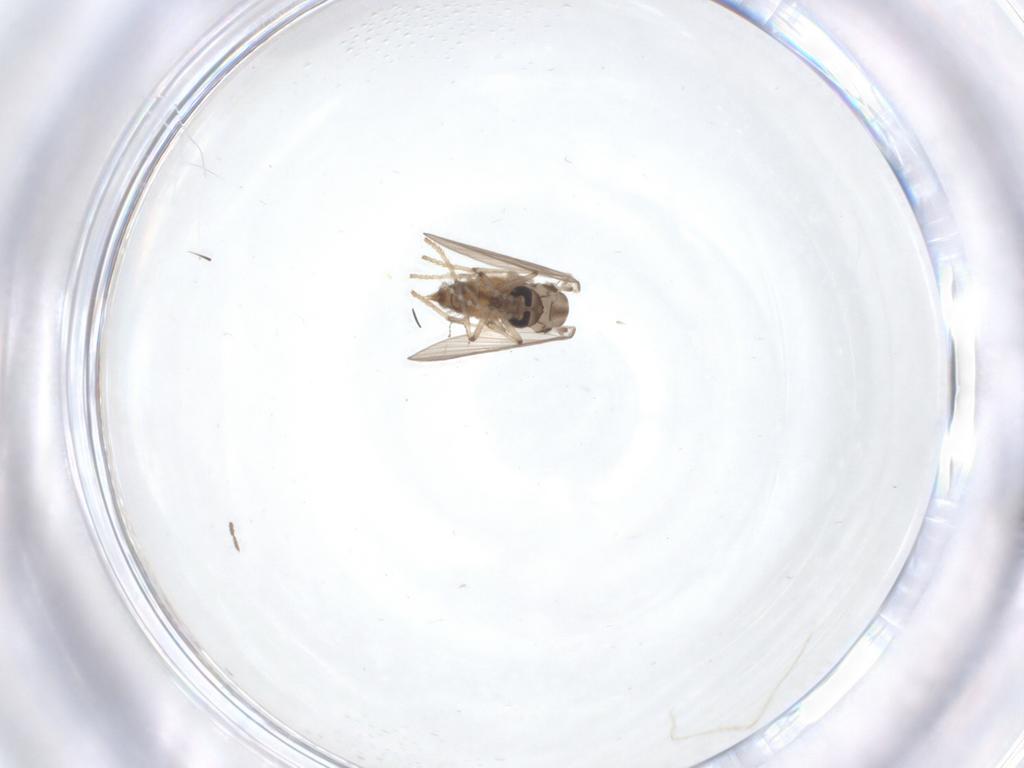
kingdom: Animalia
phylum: Arthropoda
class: Insecta
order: Diptera
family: Psychodidae
